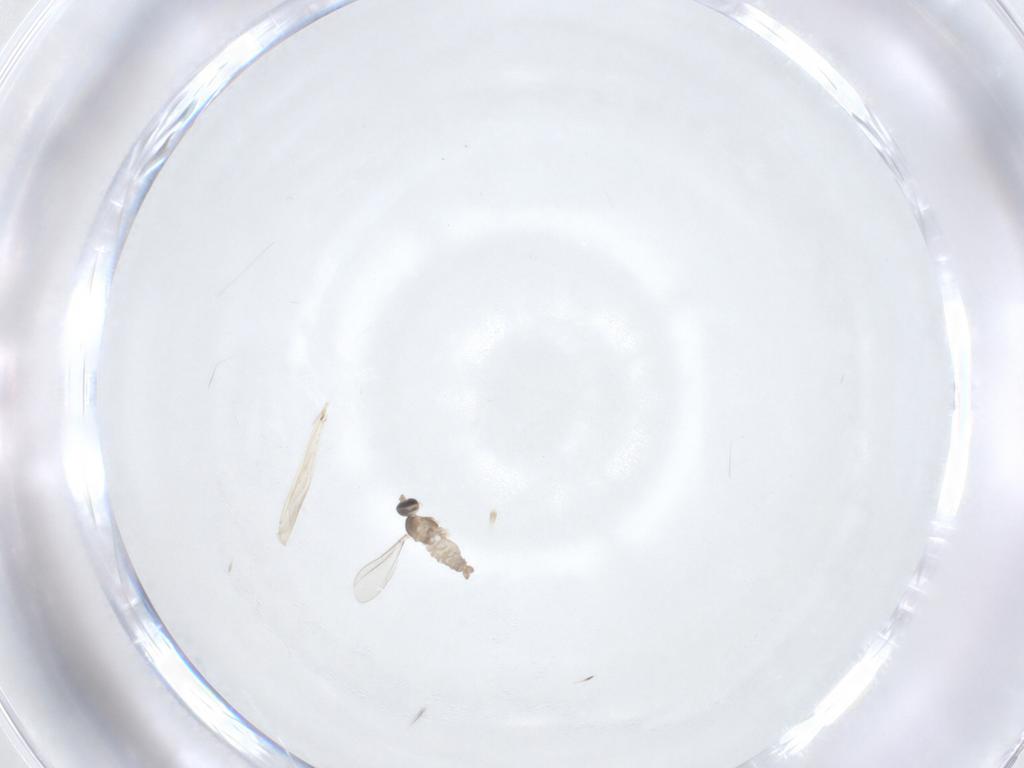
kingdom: Animalia
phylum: Arthropoda
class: Insecta
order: Diptera
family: Cecidomyiidae
